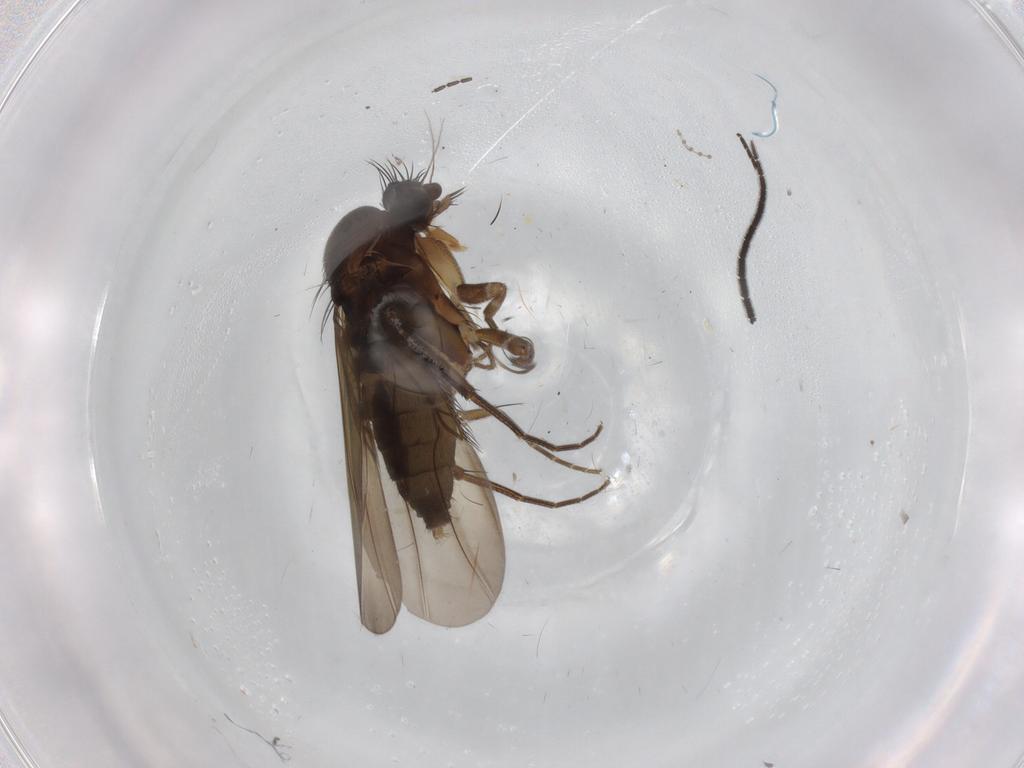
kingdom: Animalia
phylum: Arthropoda
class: Insecta
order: Diptera
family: Phoridae
